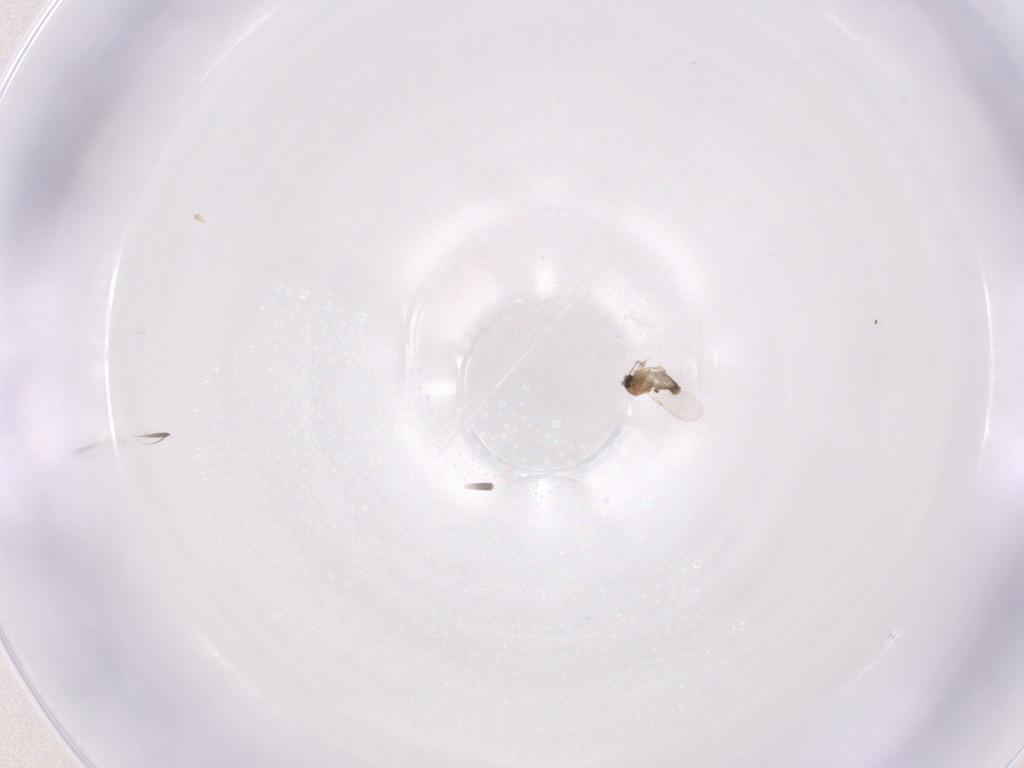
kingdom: Animalia
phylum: Arthropoda
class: Insecta
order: Diptera
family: Ceratopogonidae
